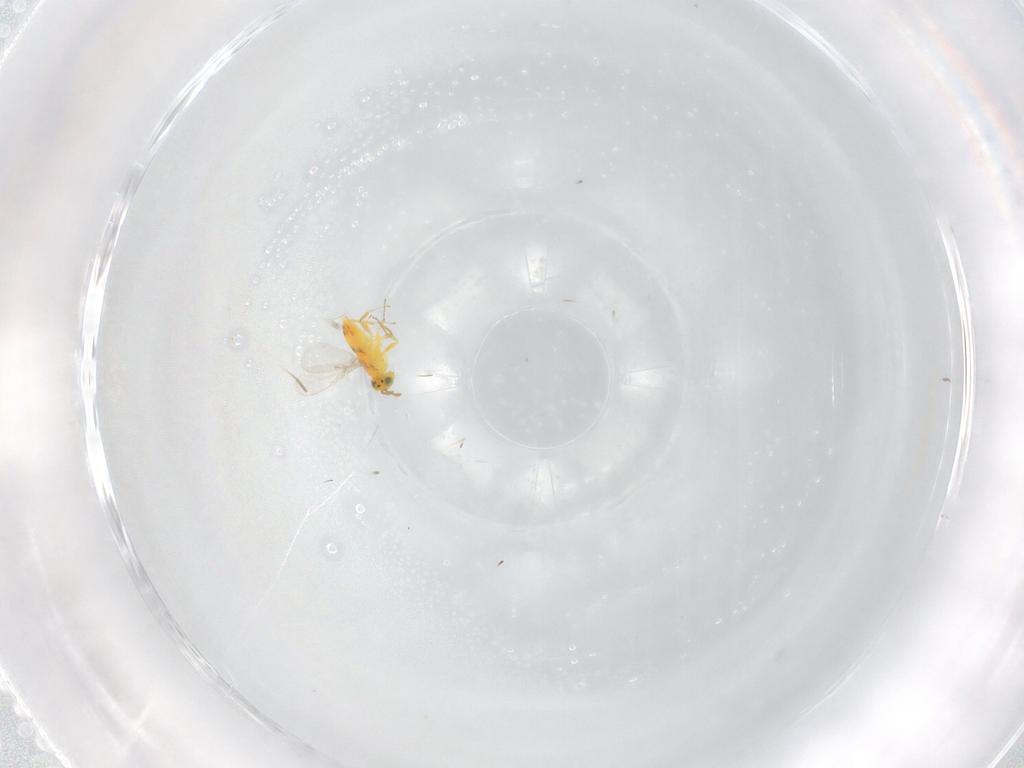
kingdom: Animalia
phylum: Arthropoda
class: Insecta
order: Hymenoptera
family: Aphelinidae
